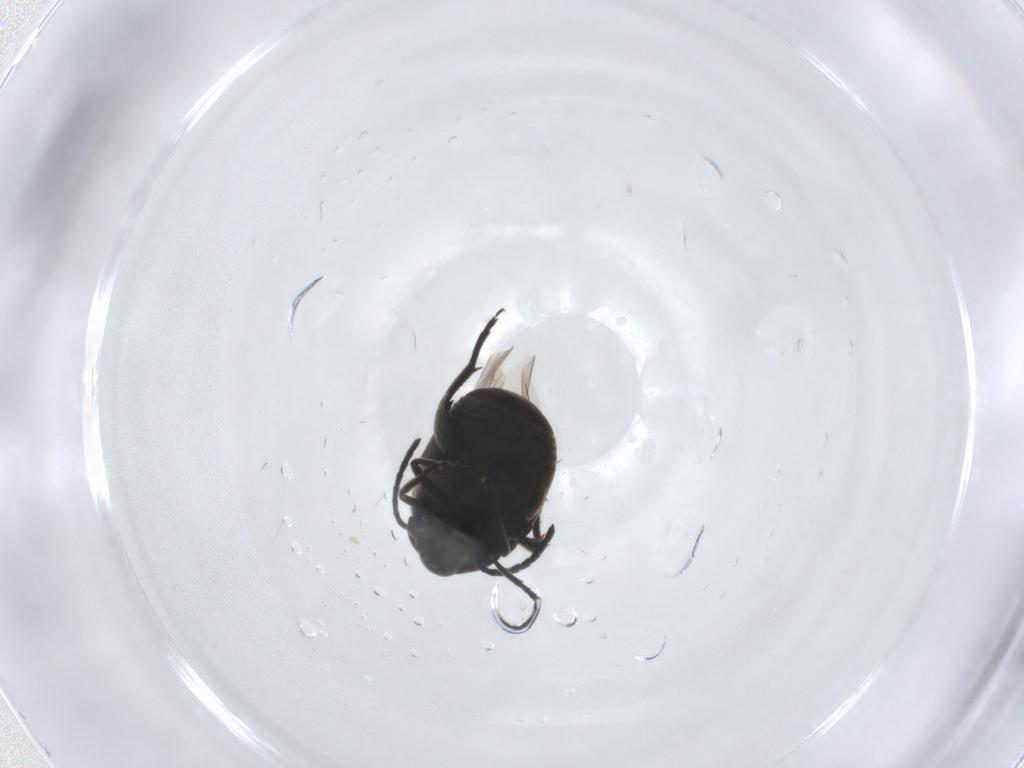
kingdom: Animalia
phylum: Arthropoda
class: Insecta
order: Coleoptera
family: Chrysomelidae
